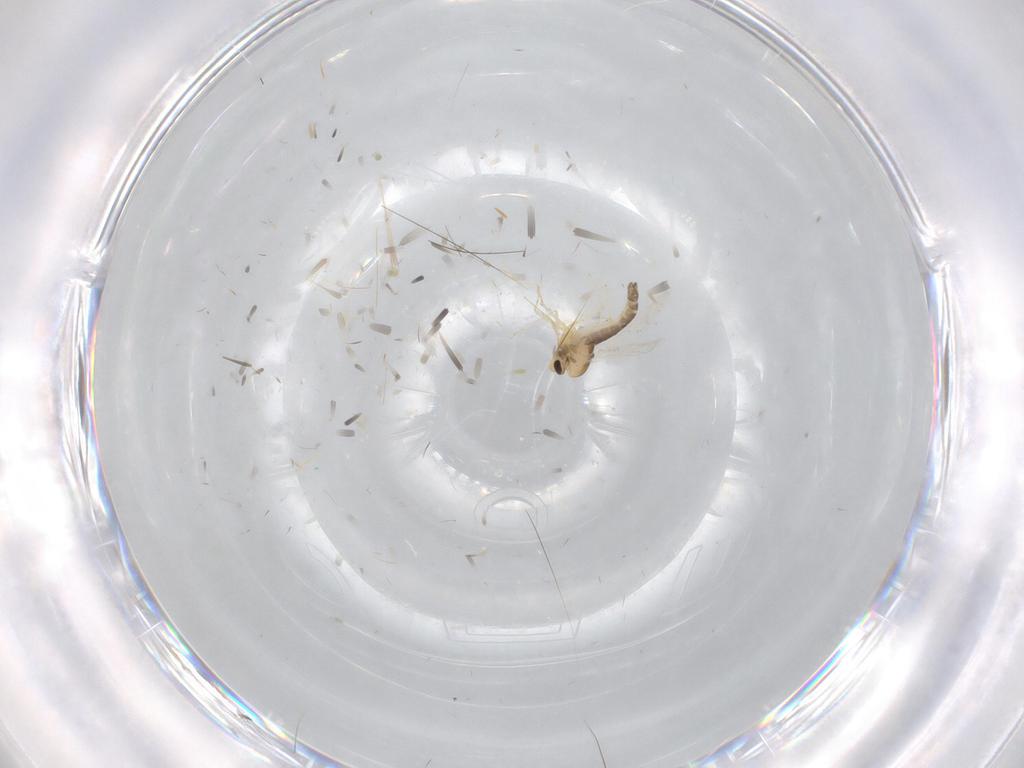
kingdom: Animalia
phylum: Arthropoda
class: Insecta
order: Diptera
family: Chironomidae
